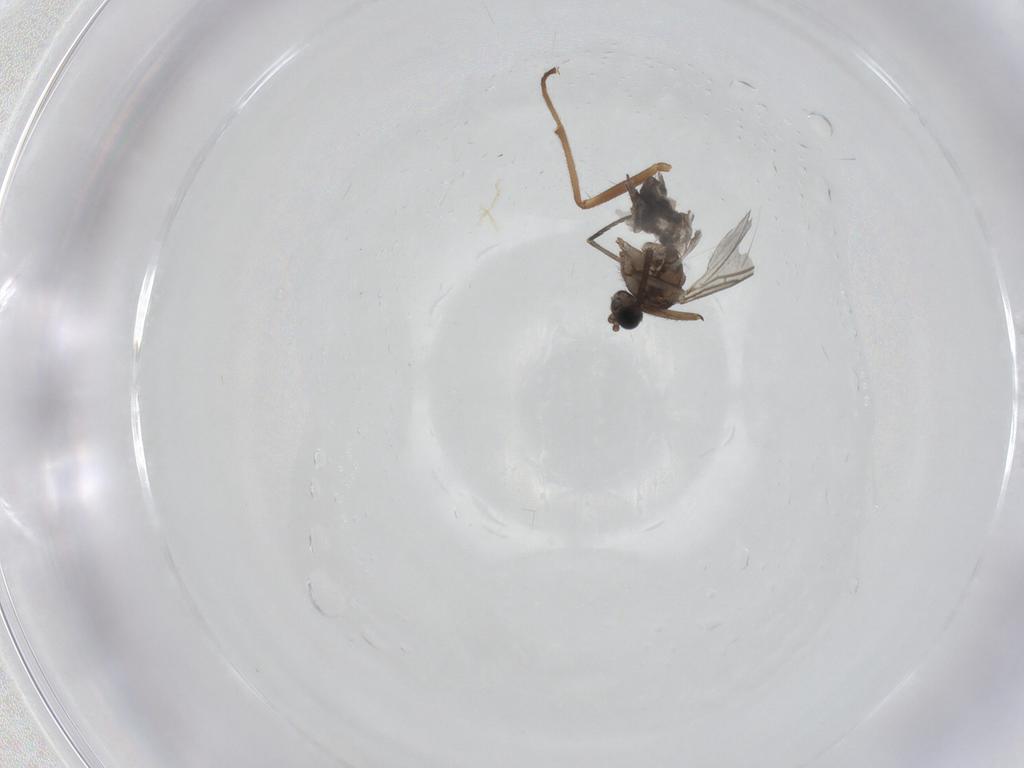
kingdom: Animalia
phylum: Arthropoda
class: Insecta
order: Diptera
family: Sciaridae
